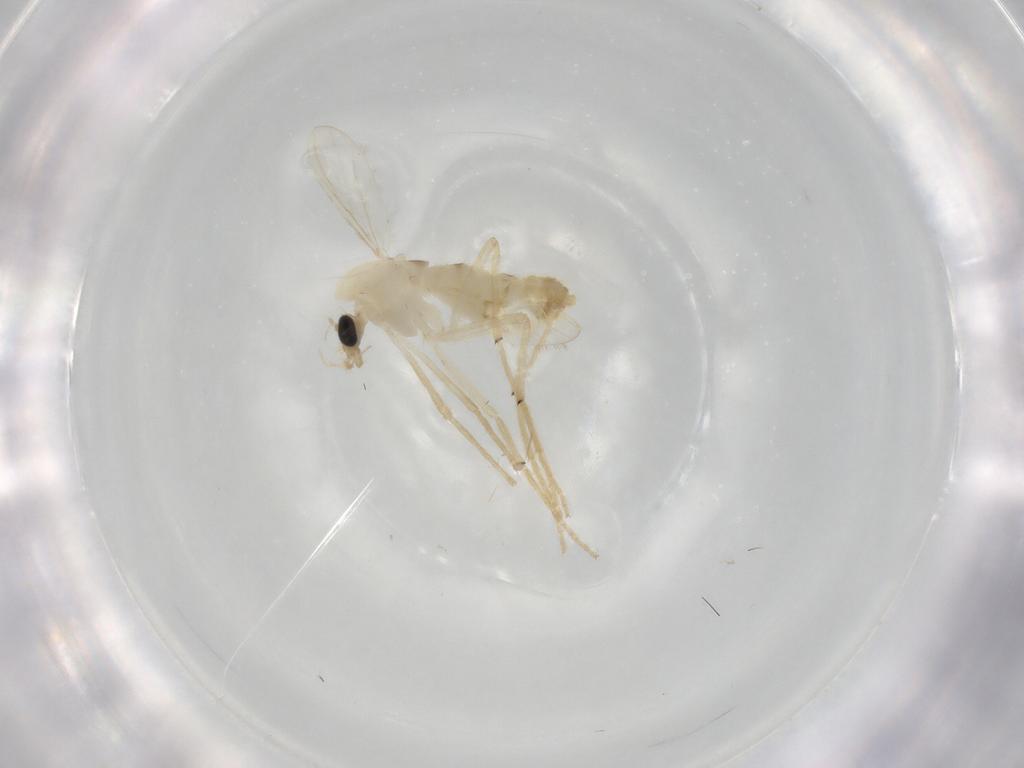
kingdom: Animalia
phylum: Arthropoda
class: Insecta
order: Diptera
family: Chironomidae
